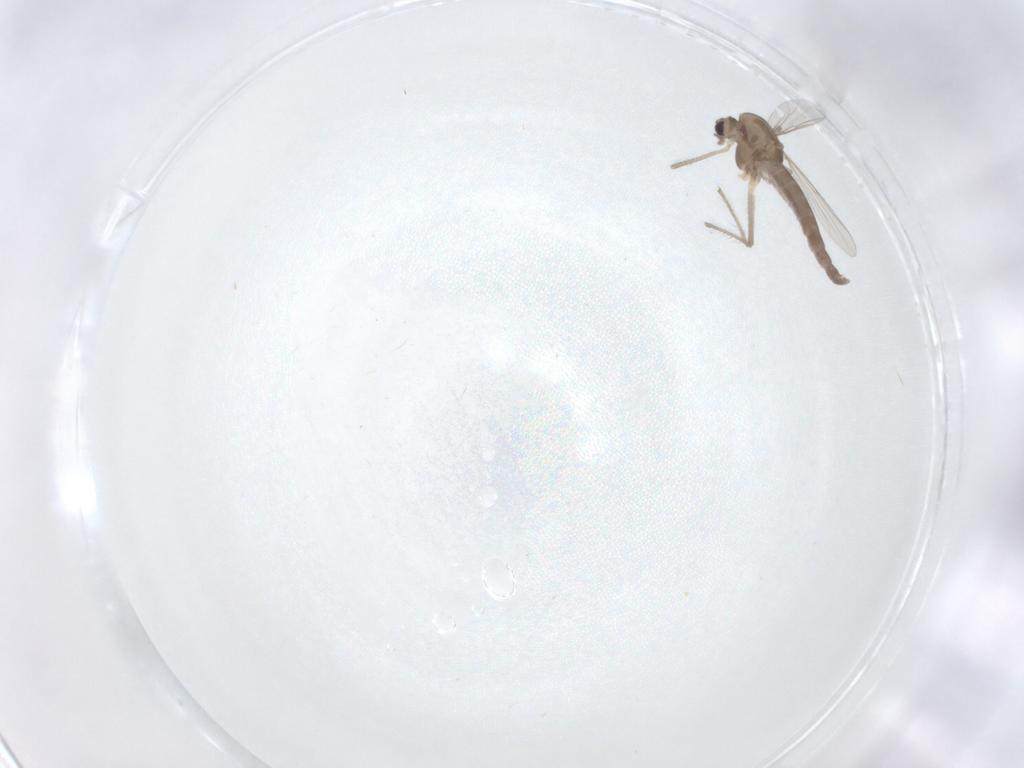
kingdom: Animalia
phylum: Arthropoda
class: Insecta
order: Diptera
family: Chironomidae
